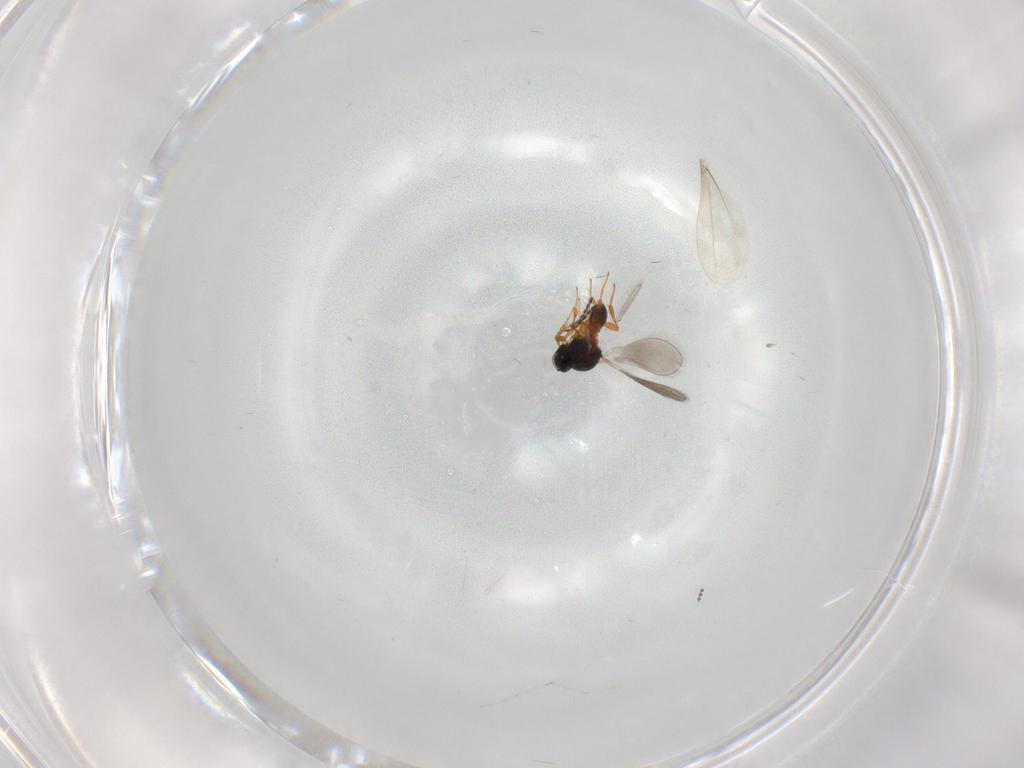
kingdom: Animalia
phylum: Arthropoda
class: Insecta
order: Hymenoptera
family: Platygastridae
